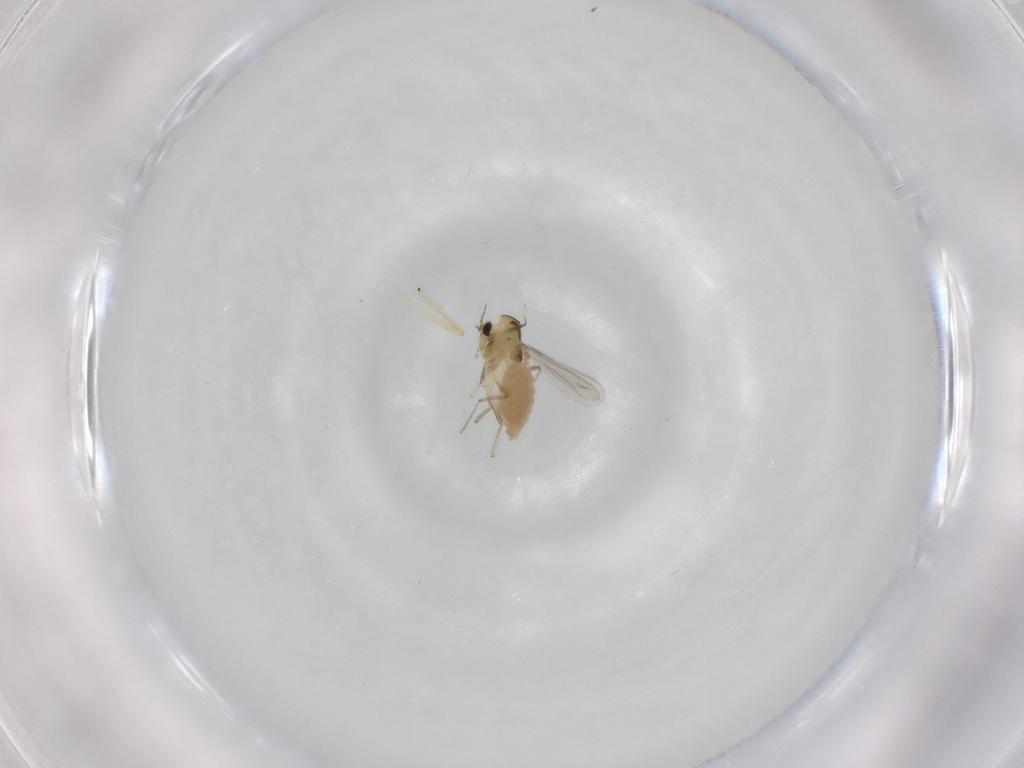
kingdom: Animalia
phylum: Arthropoda
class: Insecta
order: Diptera
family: Chironomidae
